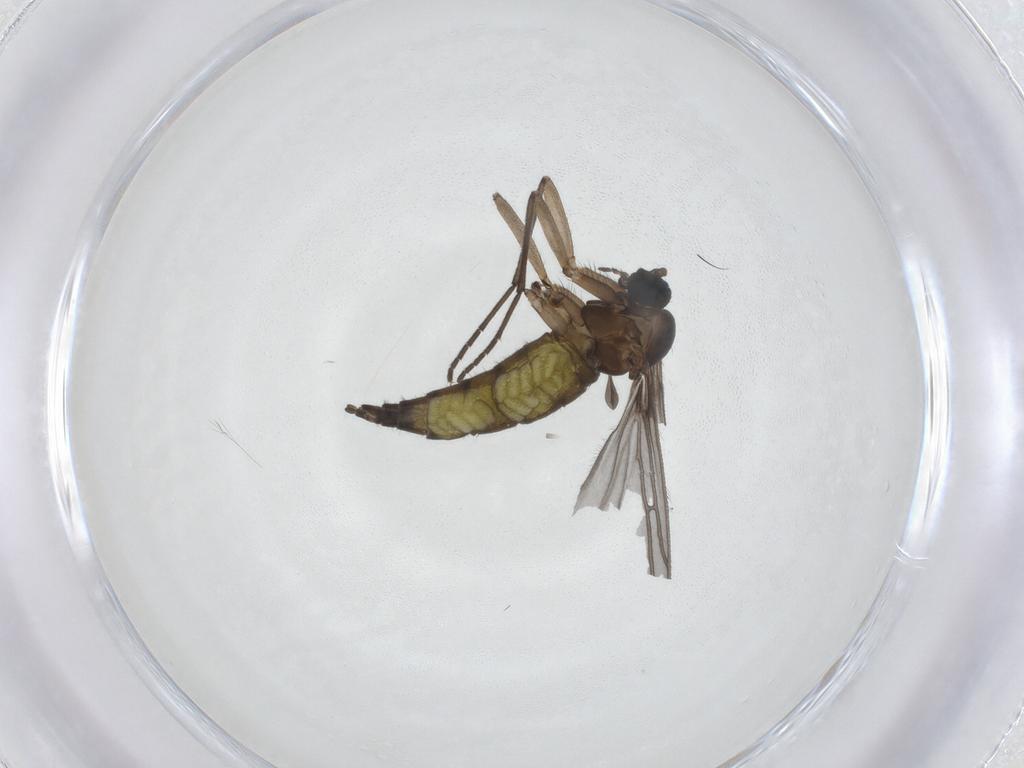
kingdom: Animalia
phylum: Arthropoda
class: Insecta
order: Diptera
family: Sciaridae
